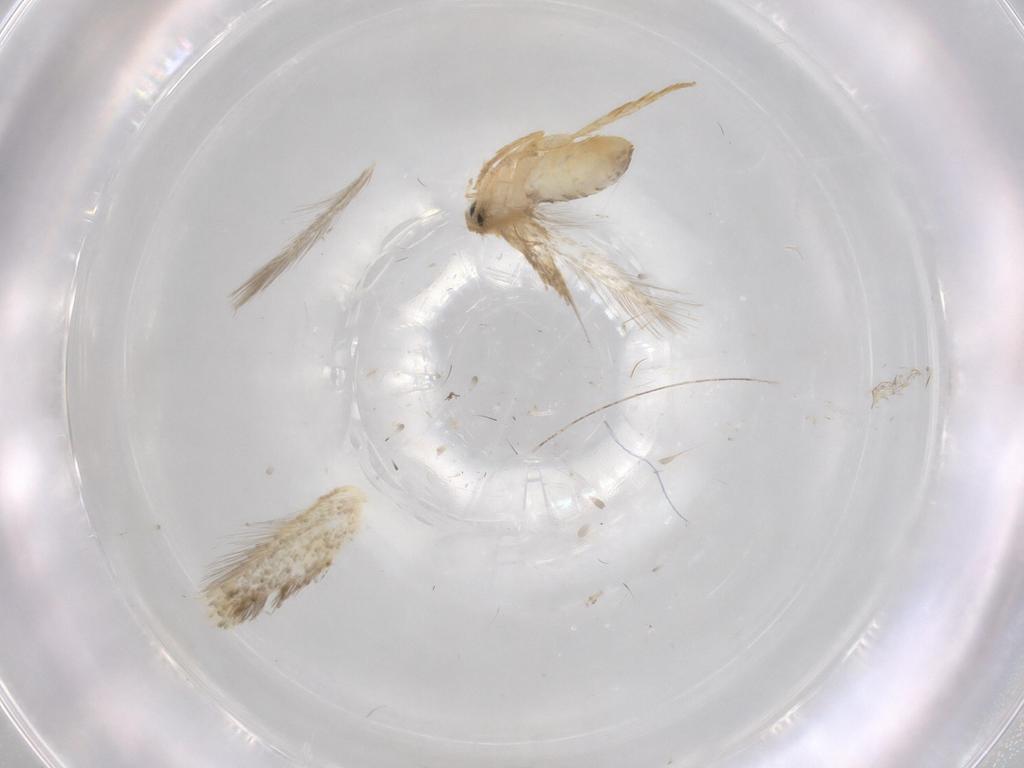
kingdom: Animalia
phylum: Arthropoda
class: Insecta
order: Lepidoptera
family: Nepticulidae
